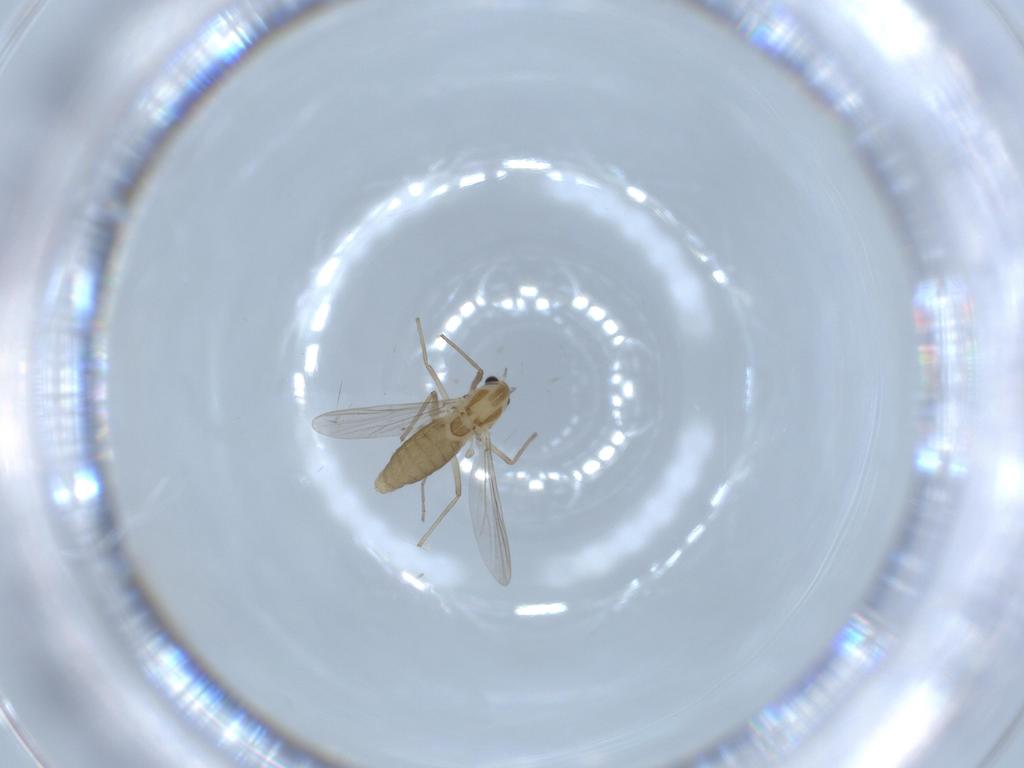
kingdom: Animalia
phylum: Arthropoda
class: Insecta
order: Diptera
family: Chironomidae
